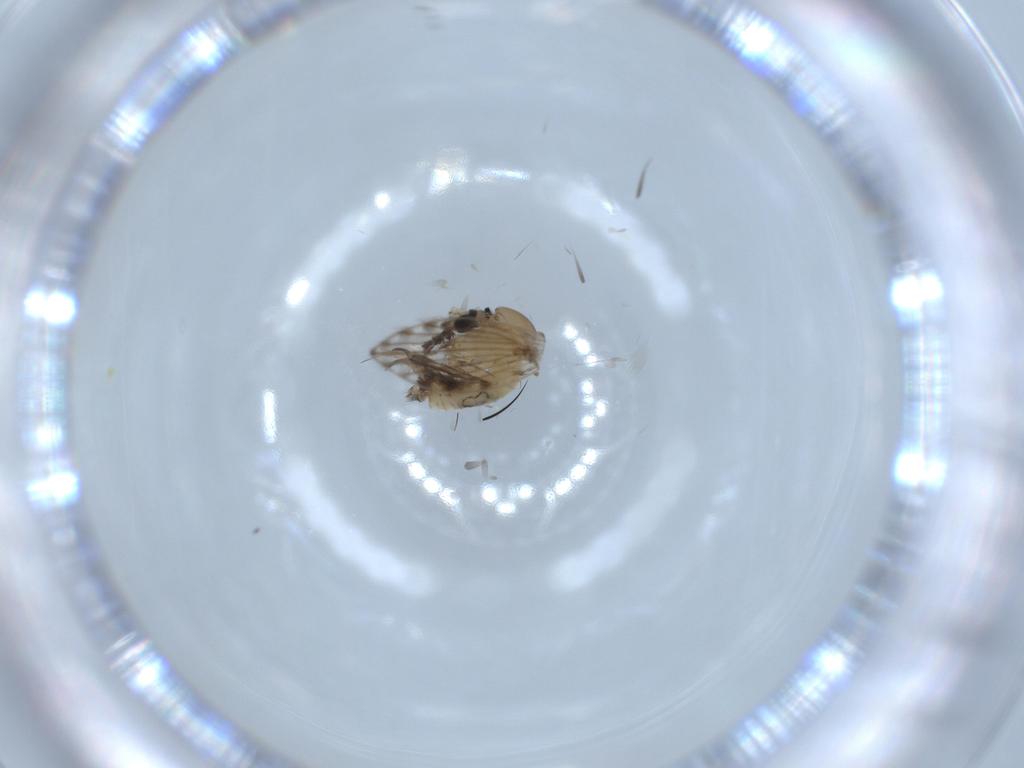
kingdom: Animalia
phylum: Arthropoda
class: Insecta
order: Diptera
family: Psychodidae
